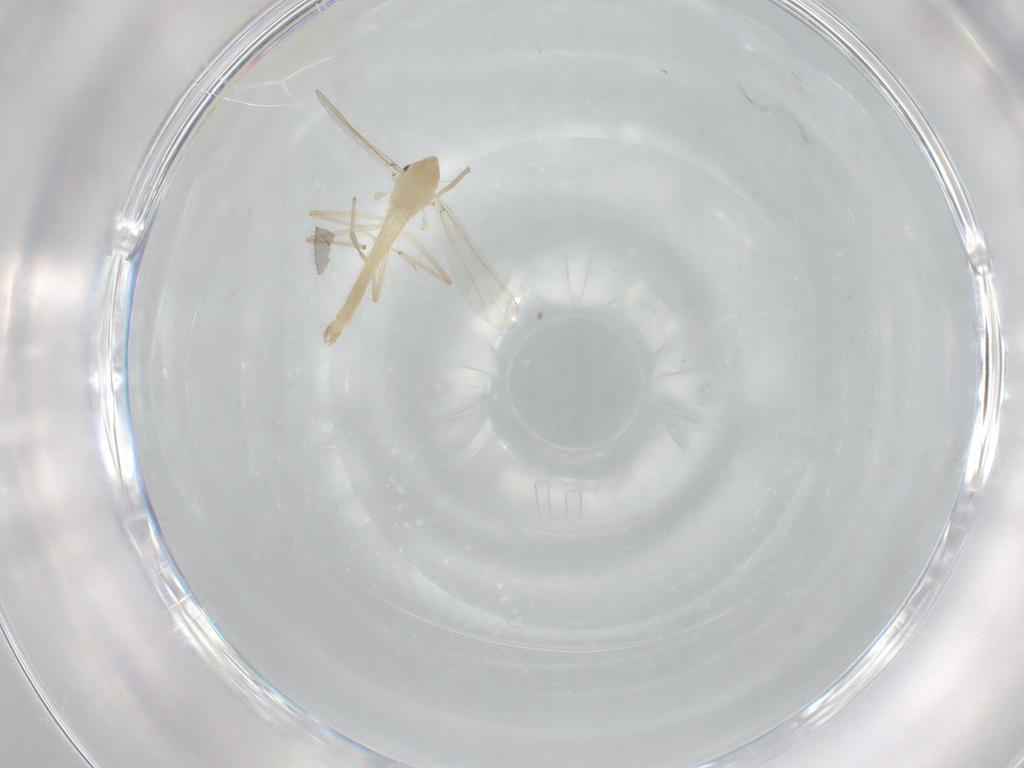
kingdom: Animalia
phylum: Arthropoda
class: Insecta
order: Diptera
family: Chironomidae
